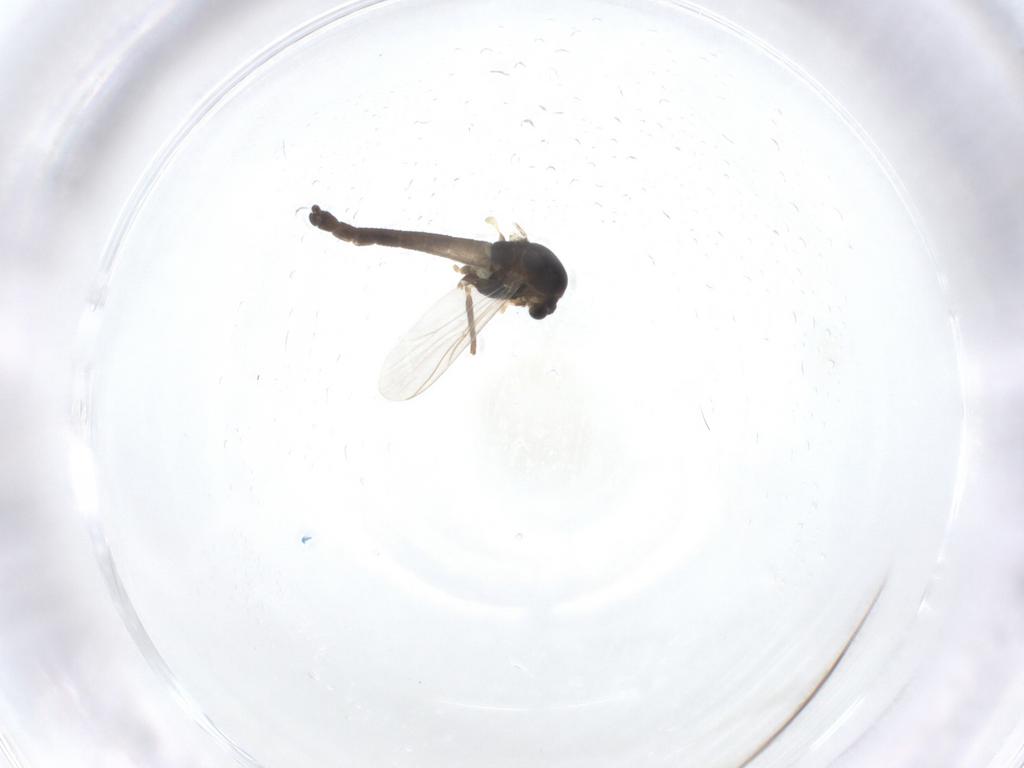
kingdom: Animalia
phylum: Arthropoda
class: Insecta
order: Diptera
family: Chironomidae
